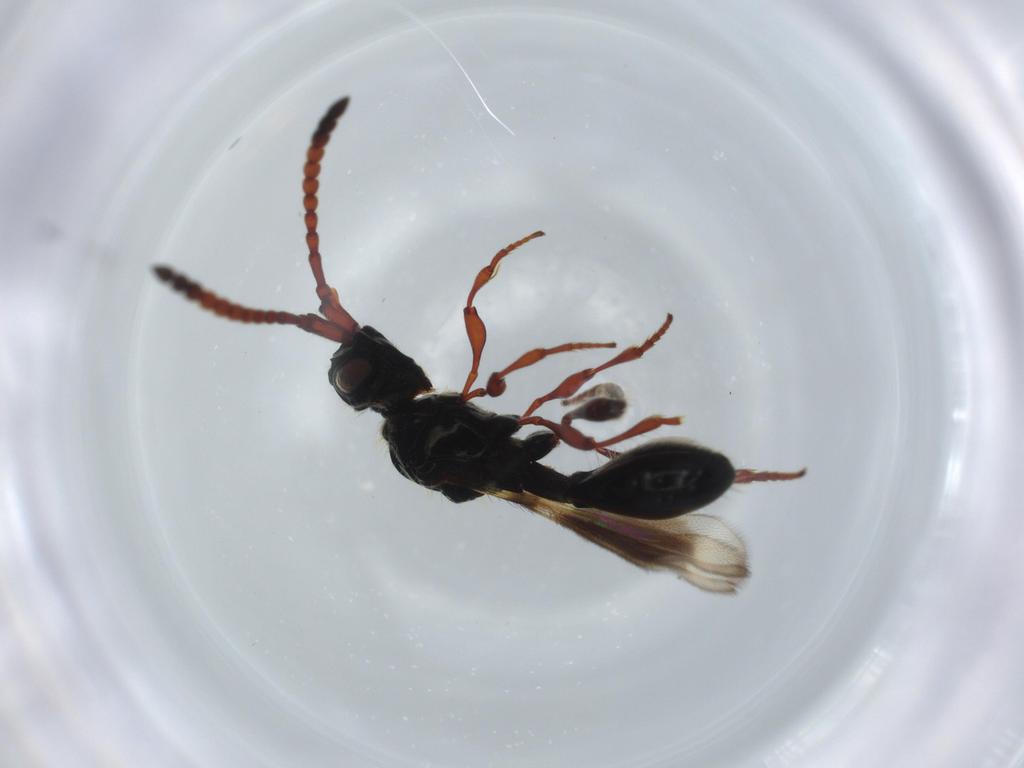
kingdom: Animalia
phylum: Arthropoda
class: Insecta
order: Hymenoptera
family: Diapriidae
